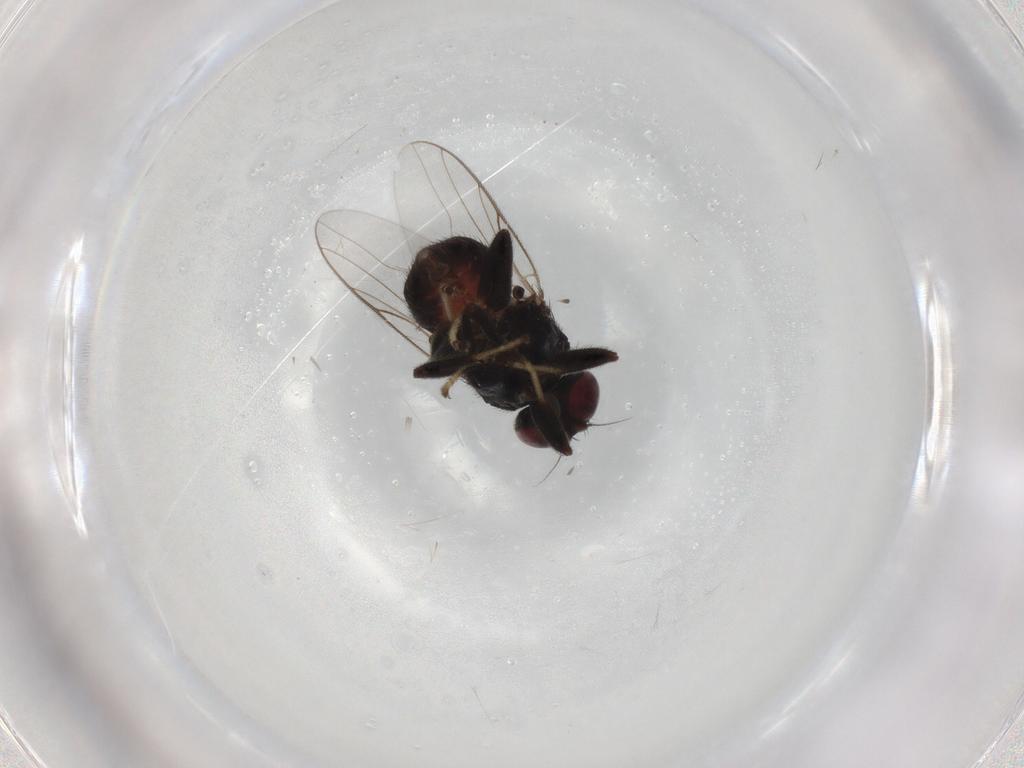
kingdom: Animalia
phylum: Arthropoda
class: Insecta
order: Diptera
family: Chloropidae
